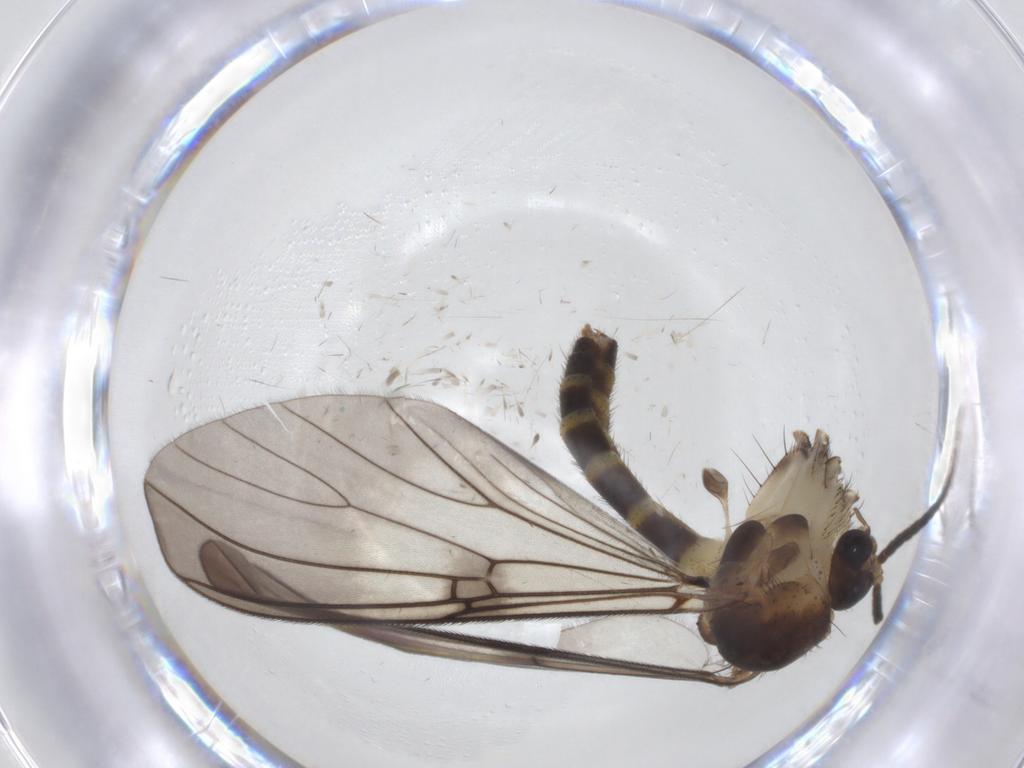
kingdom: Animalia
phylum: Arthropoda
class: Insecta
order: Diptera
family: Mycetophilidae
